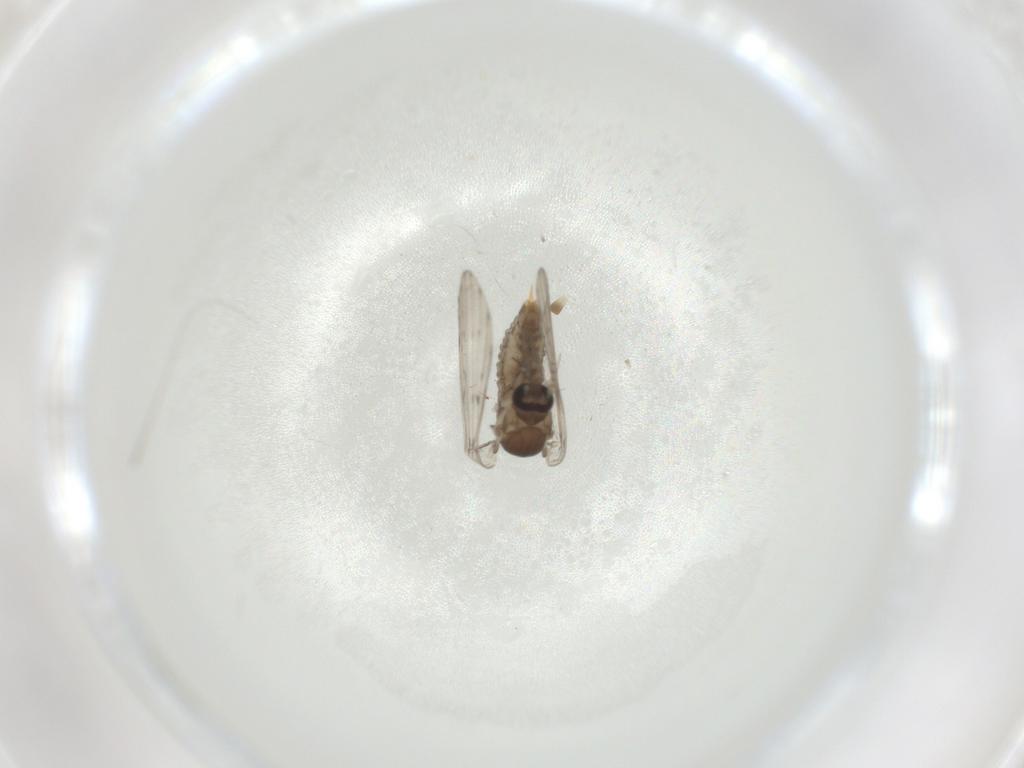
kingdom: Animalia
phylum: Arthropoda
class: Insecta
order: Diptera
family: Psychodidae
